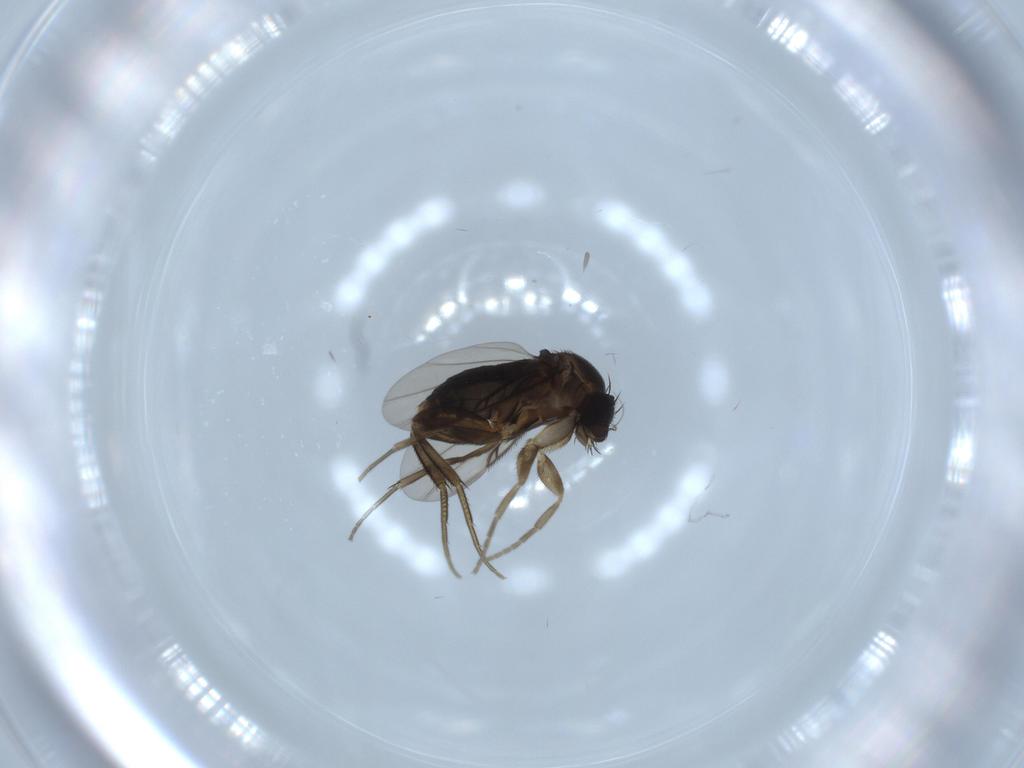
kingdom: Animalia
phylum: Arthropoda
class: Insecta
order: Diptera
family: Phoridae
